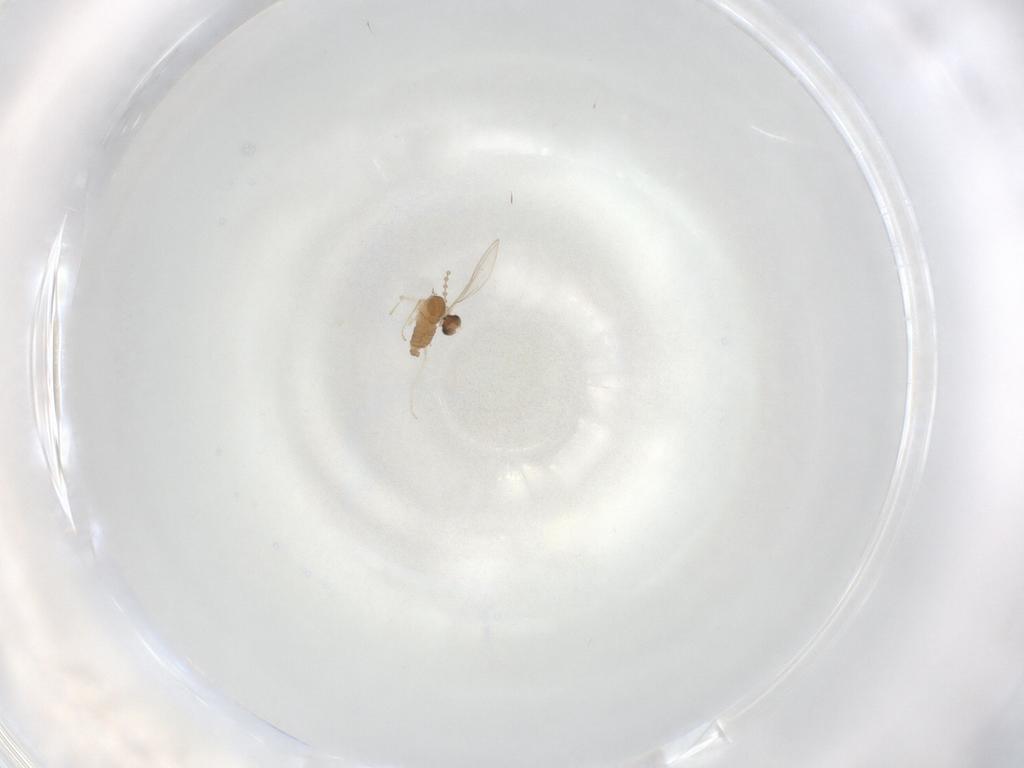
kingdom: Animalia
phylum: Arthropoda
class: Insecta
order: Diptera
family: Cecidomyiidae
